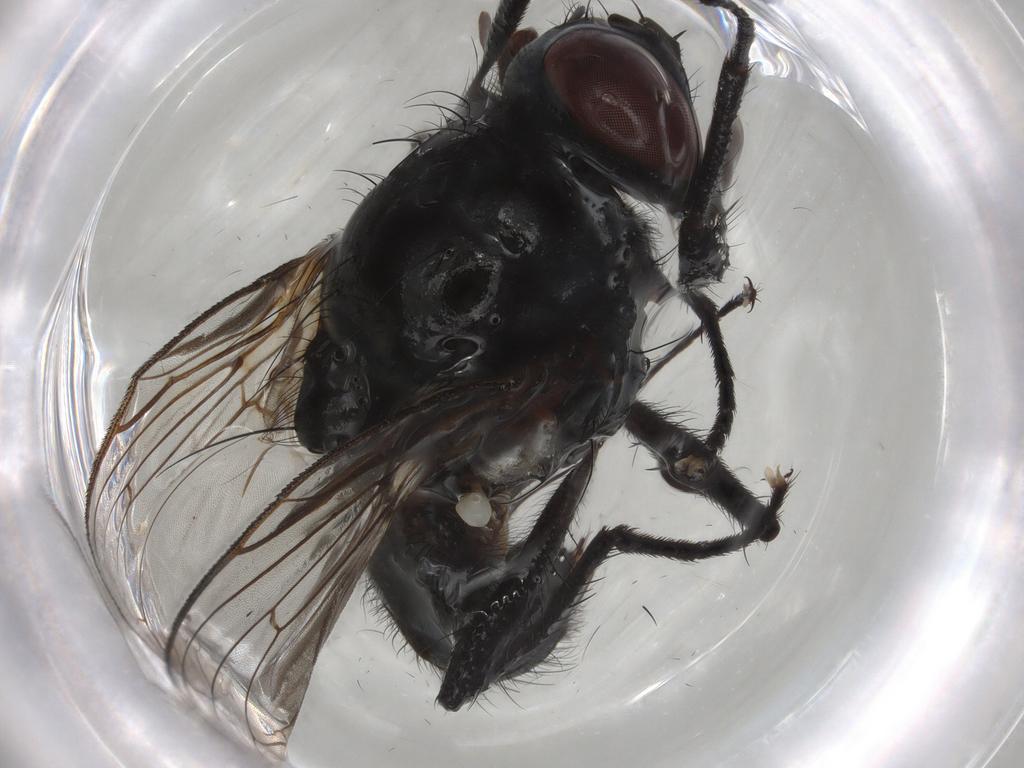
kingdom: Animalia
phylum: Arthropoda
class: Insecta
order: Diptera
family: Anthomyiidae
